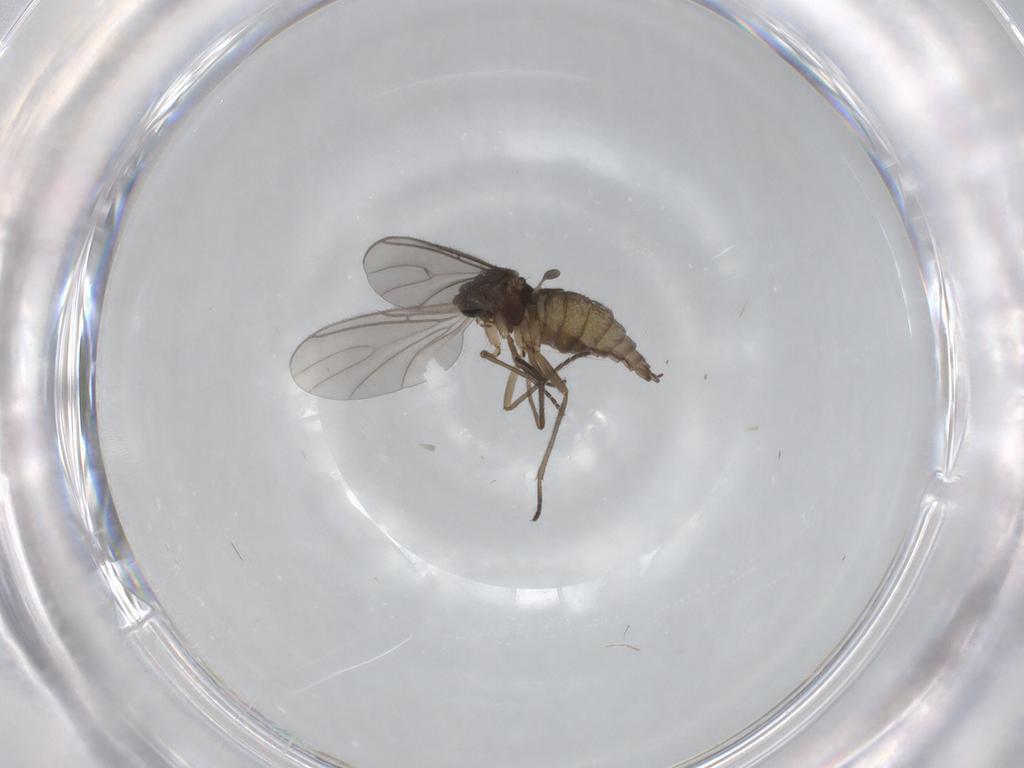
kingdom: Animalia
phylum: Arthropoda
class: Insecta
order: Diptera
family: Sciaridae
